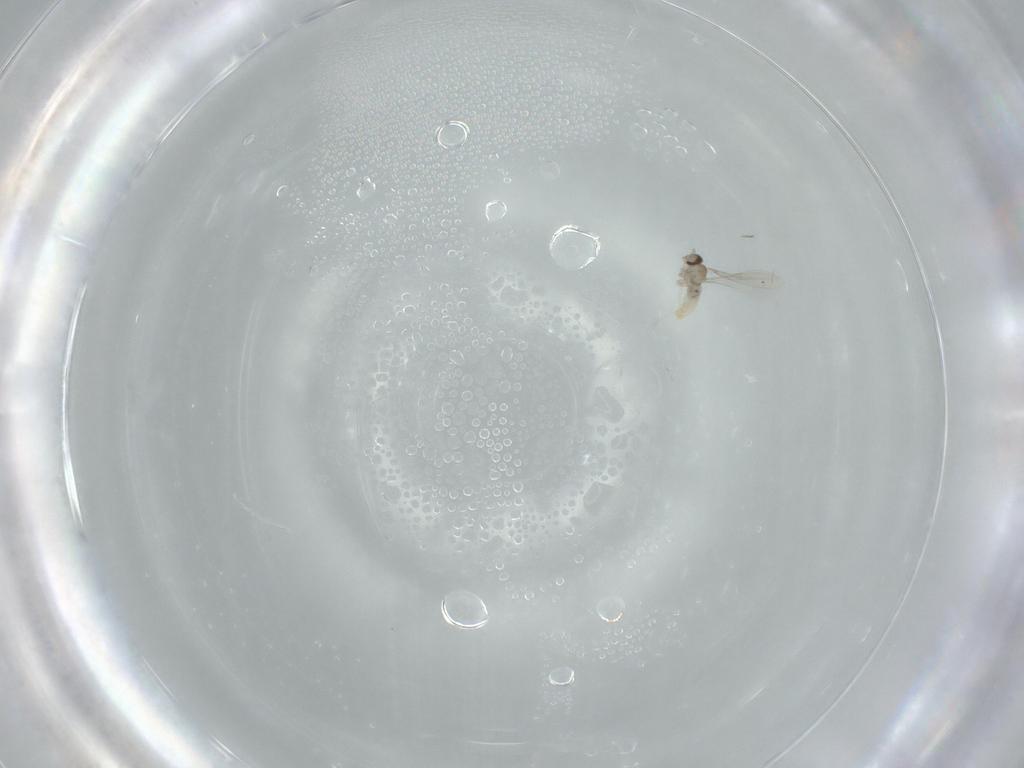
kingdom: Animalia
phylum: Arthropoda
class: Insecta
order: Diptera
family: Cecidomyiidae
